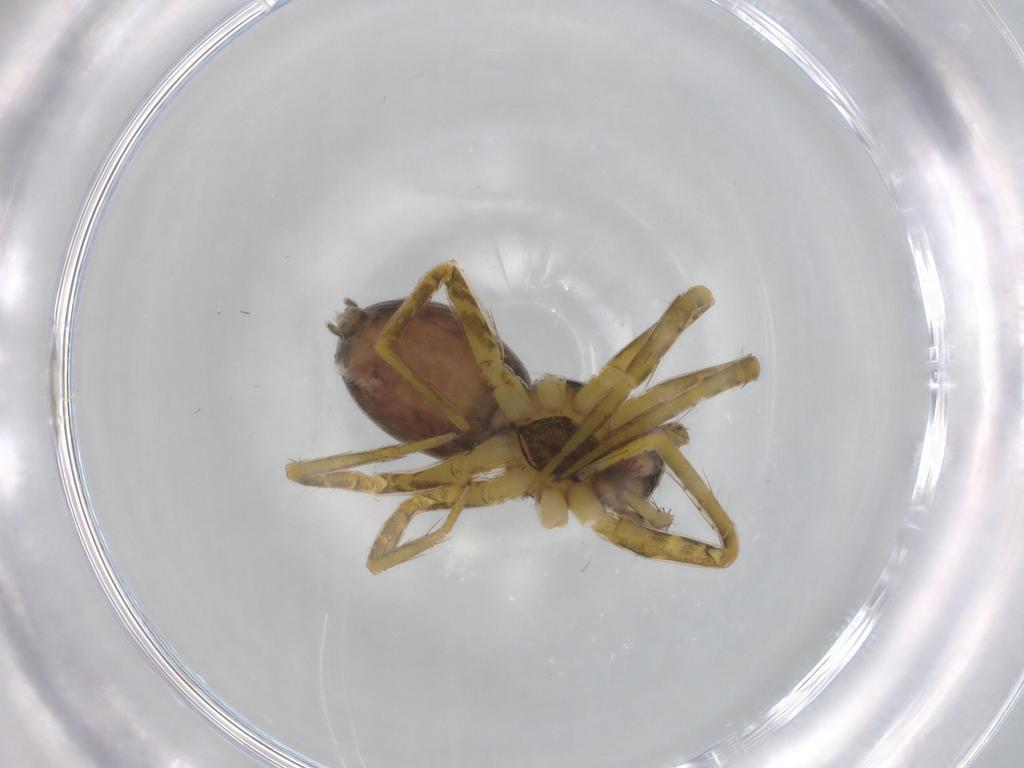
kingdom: Animalia
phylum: Arthropoda
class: Arachnida
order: Araneae
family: Trachelidae
